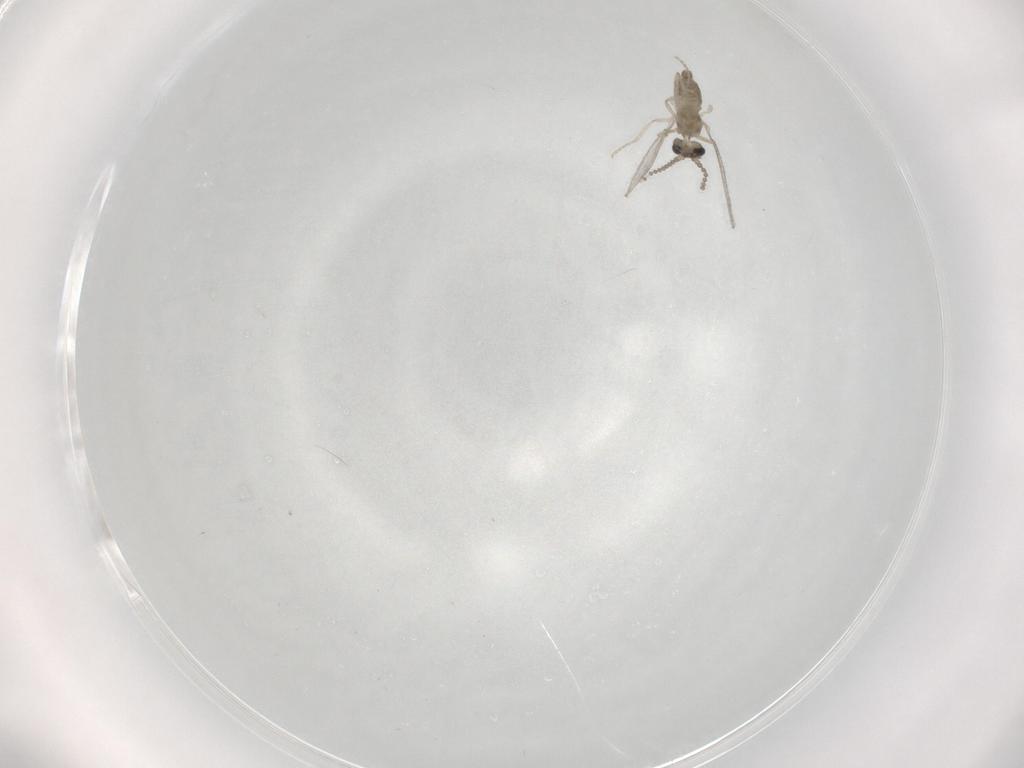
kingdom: Animalia
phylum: Arthropoda
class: Insecta
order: Diptera
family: Cecidomyiidae
